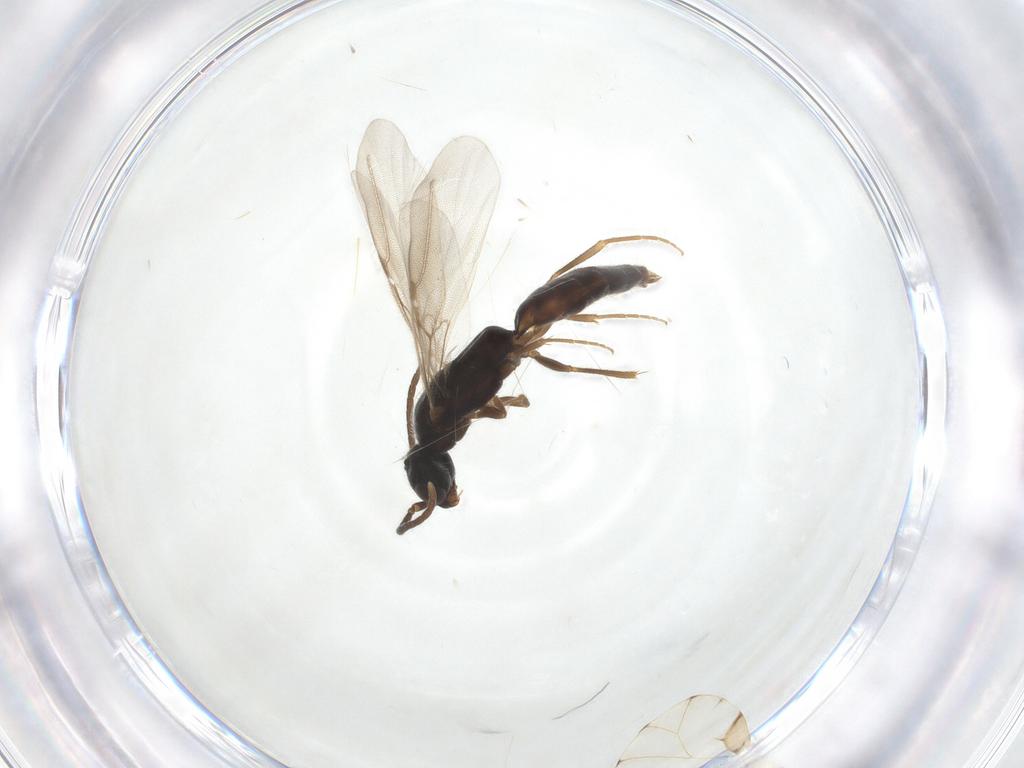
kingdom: Animalia
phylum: Arthropoda
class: Insecta
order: Hymenoptera
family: Bethylidae
